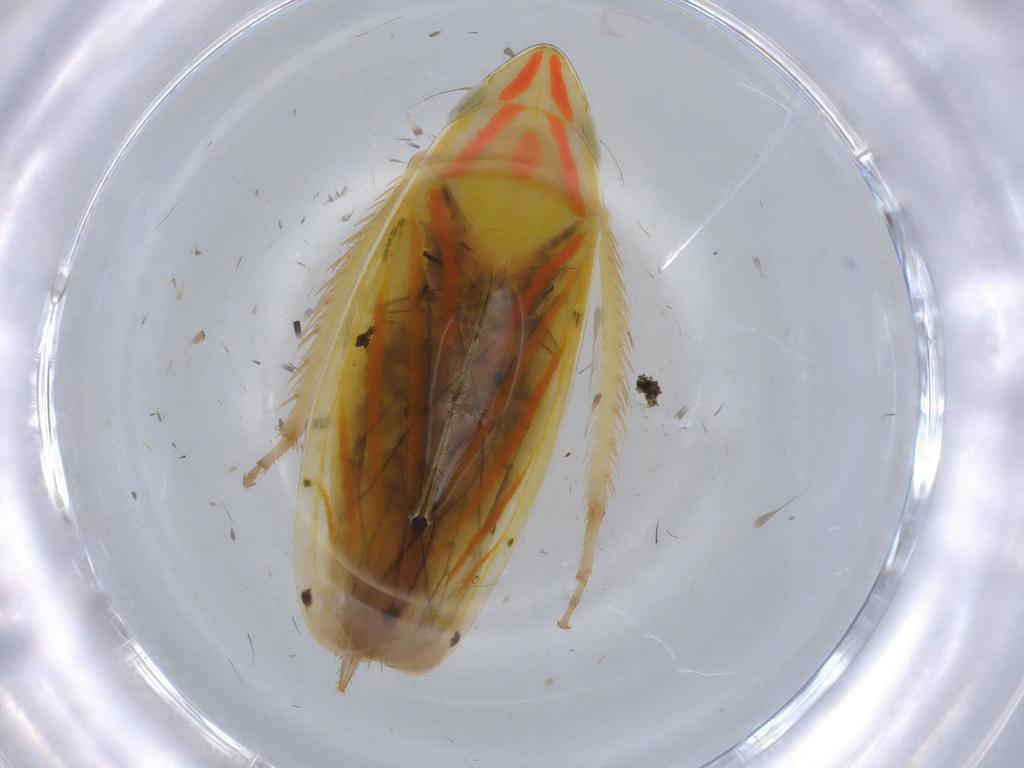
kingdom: Animalia
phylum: Arthropoda
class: Insecta
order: Hemiptera
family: Cicadellidae
